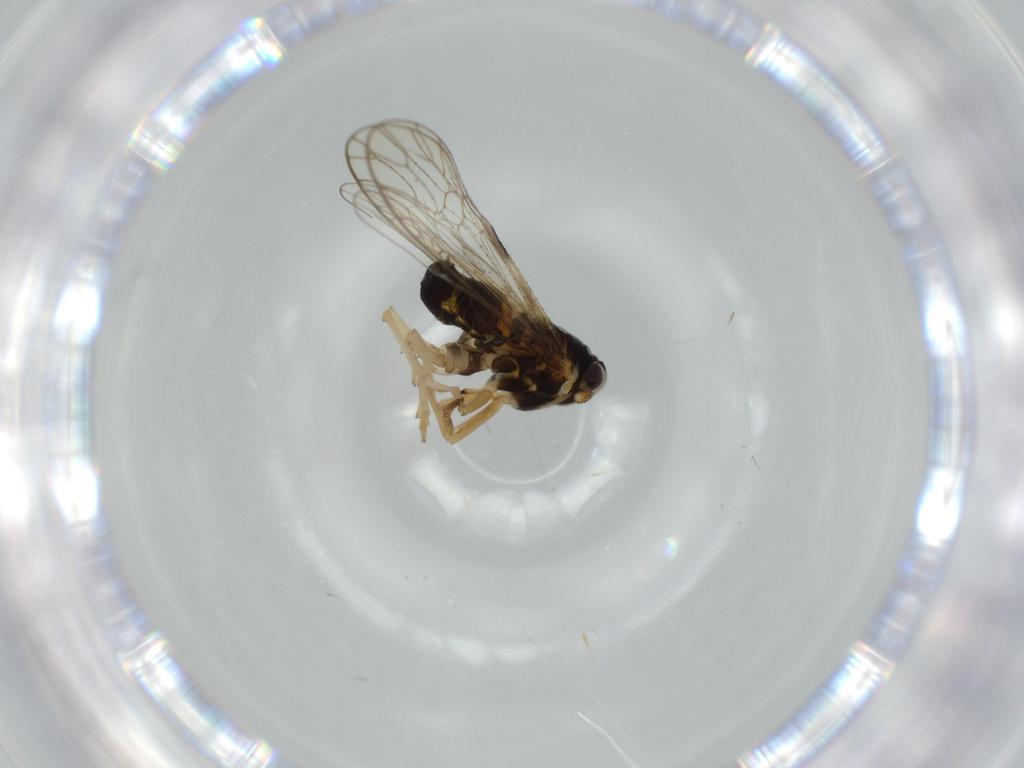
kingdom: Animalia
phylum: Arthropoda
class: Insecta
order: Hemiptera
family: Cicadellidae
